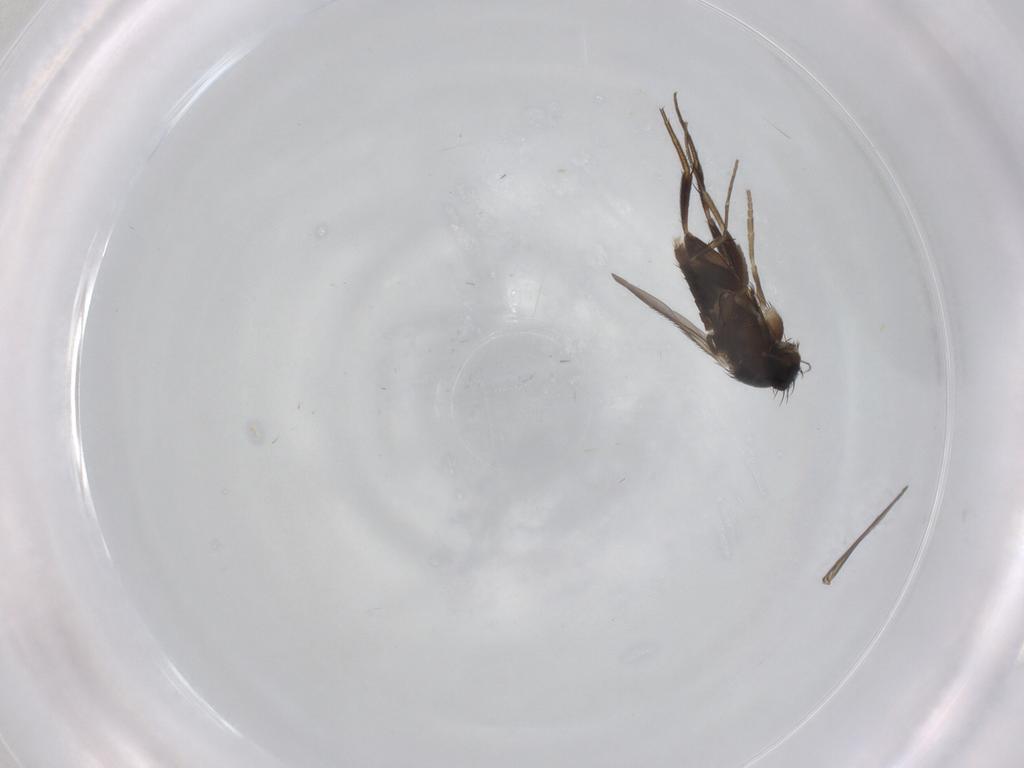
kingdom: Animalia
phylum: Arthropoda
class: Insecta
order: Diptera
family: Phoridae
